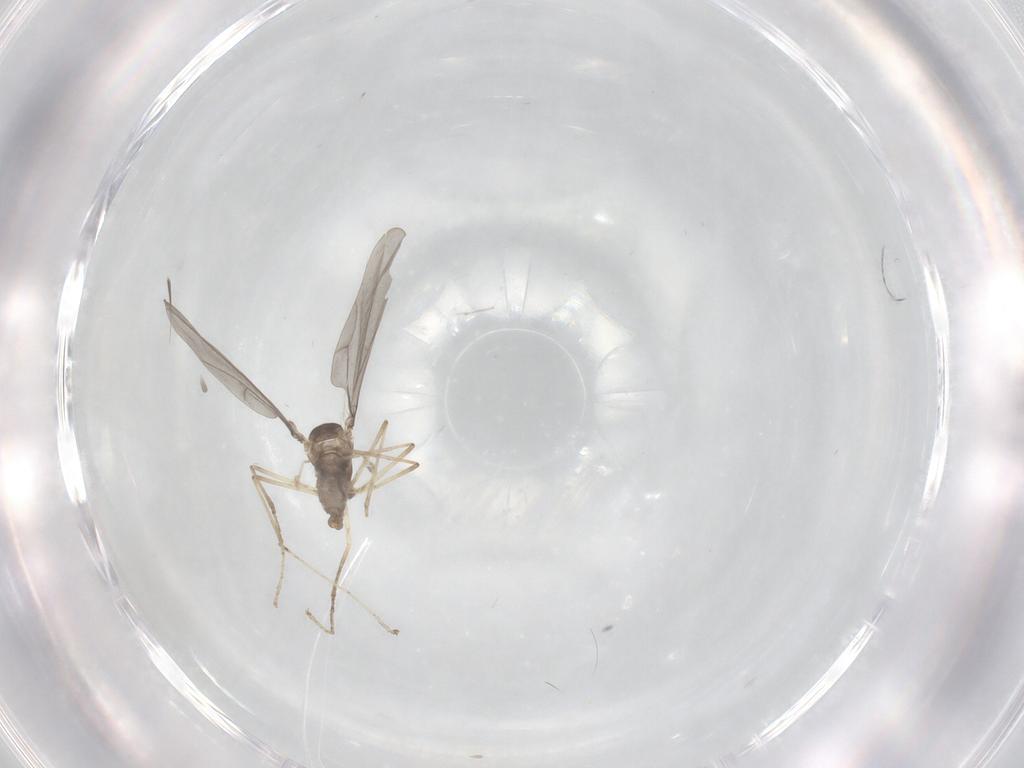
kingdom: Animalia
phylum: Arthropoda
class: Insecta
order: Diptera
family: Cecidomyiidae
